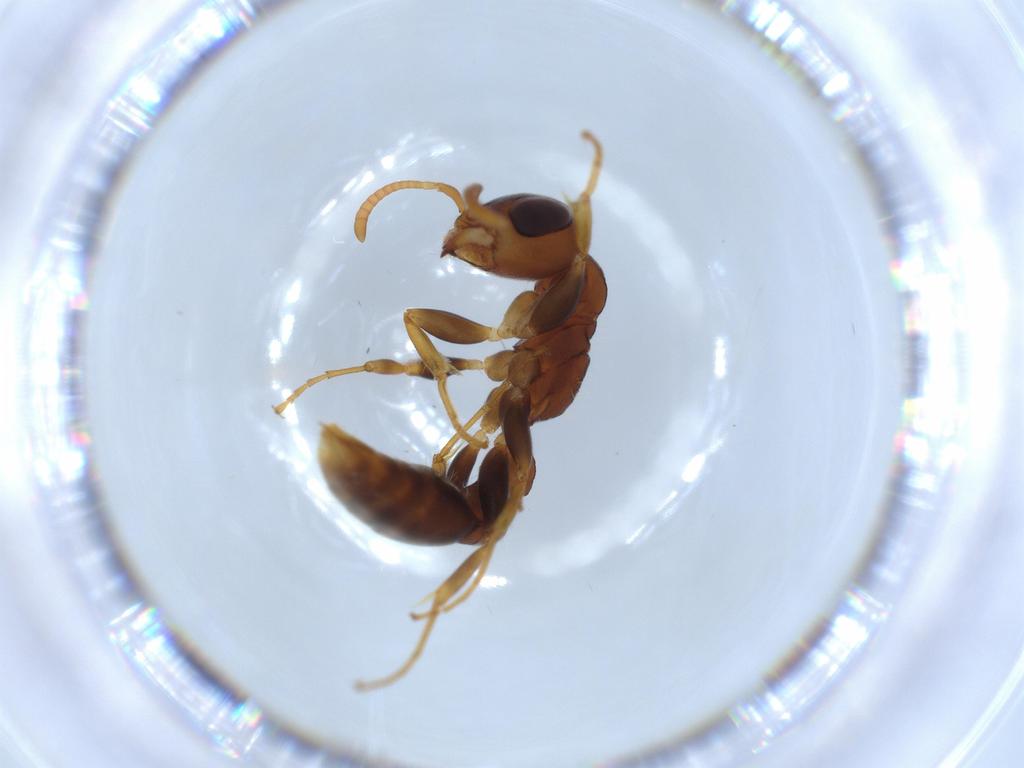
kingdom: Animalia
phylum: Arthropoda
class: Insecta
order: Hymenoptera
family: Formicidae
